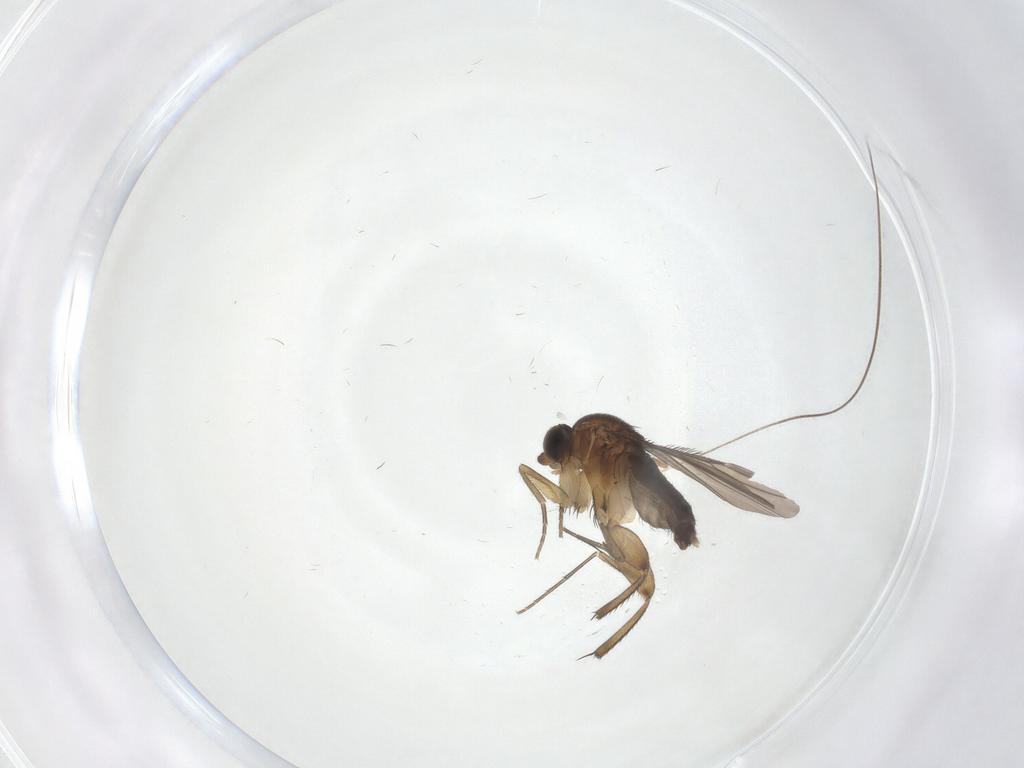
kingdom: Animalia
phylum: Arthropoda
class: Insecta
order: Diptera
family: Phoridae
